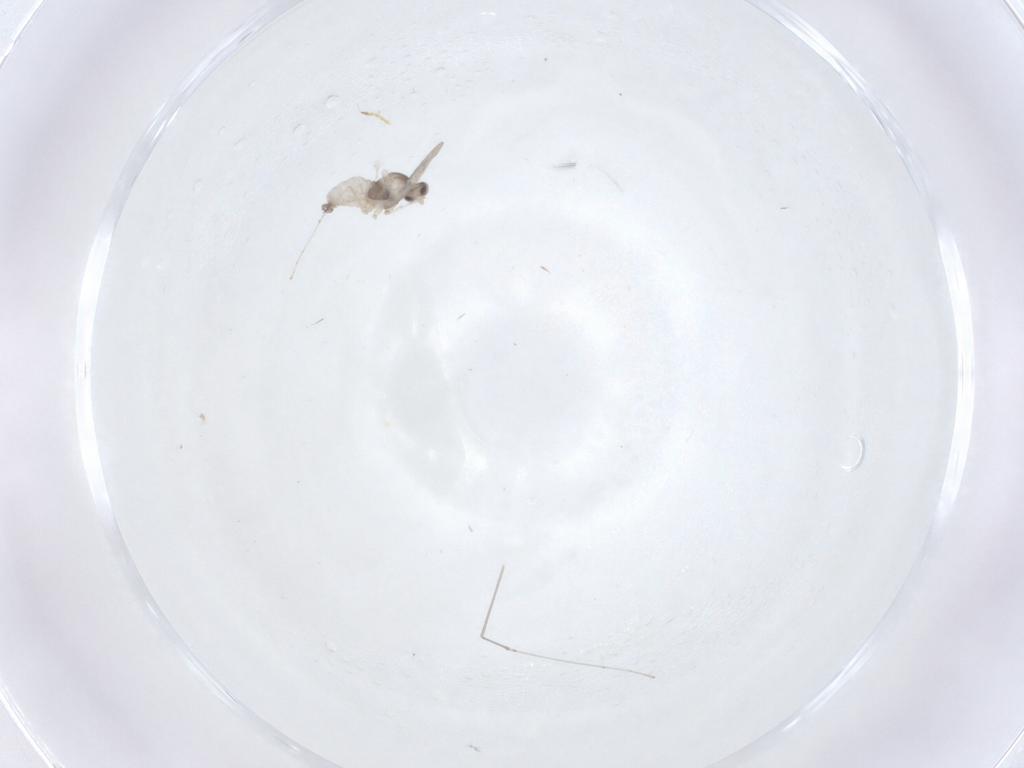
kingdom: Animalia
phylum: Arthropoda
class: Insecta
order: Diptera
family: Cecidomyiidae
